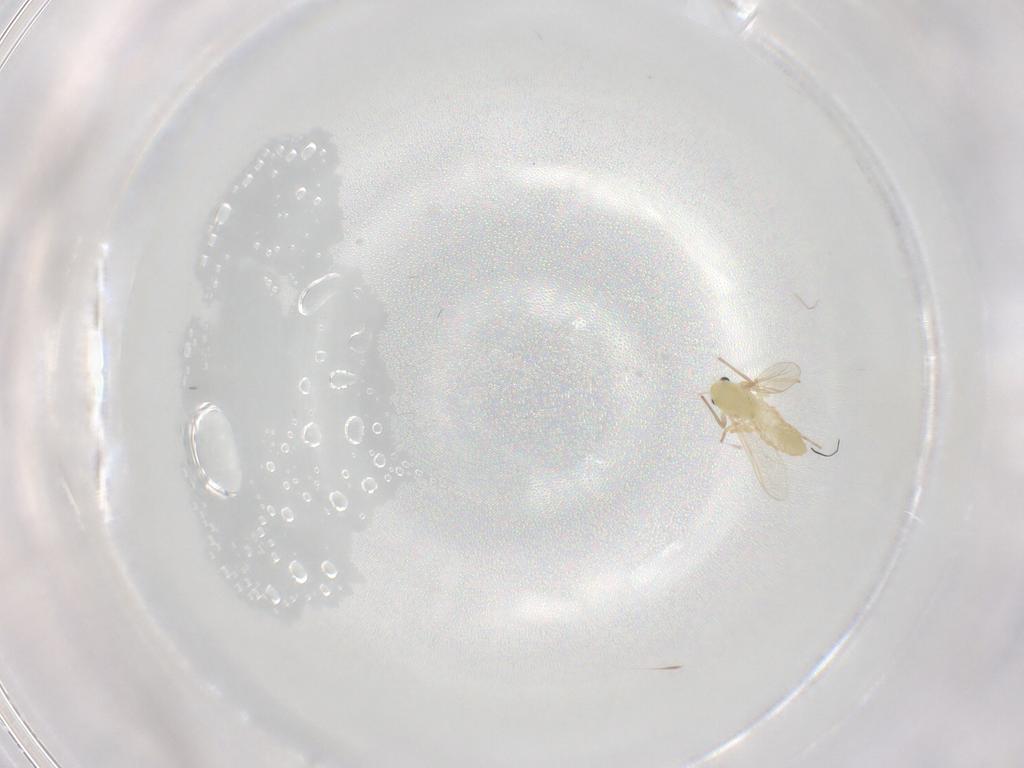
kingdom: Animalia
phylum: Arthropoda
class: Insecta
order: Diptera
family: Chironomidae
